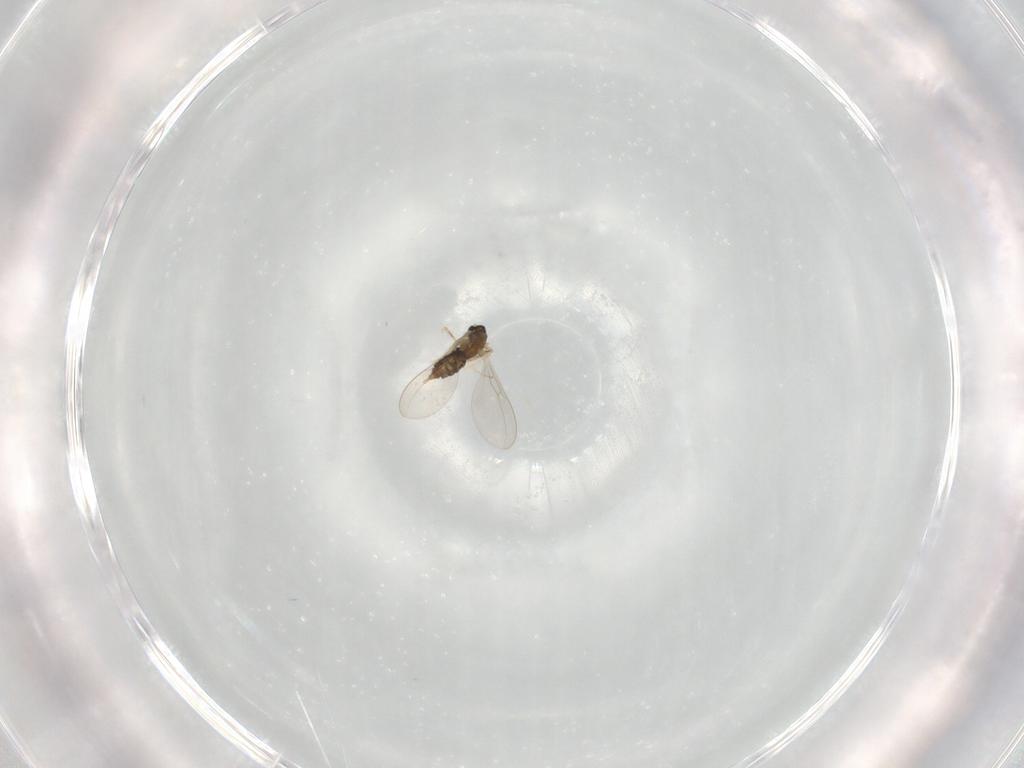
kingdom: Animalia
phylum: Arthropoda
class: Insecta
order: Diptera
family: Cecidomyiidae
